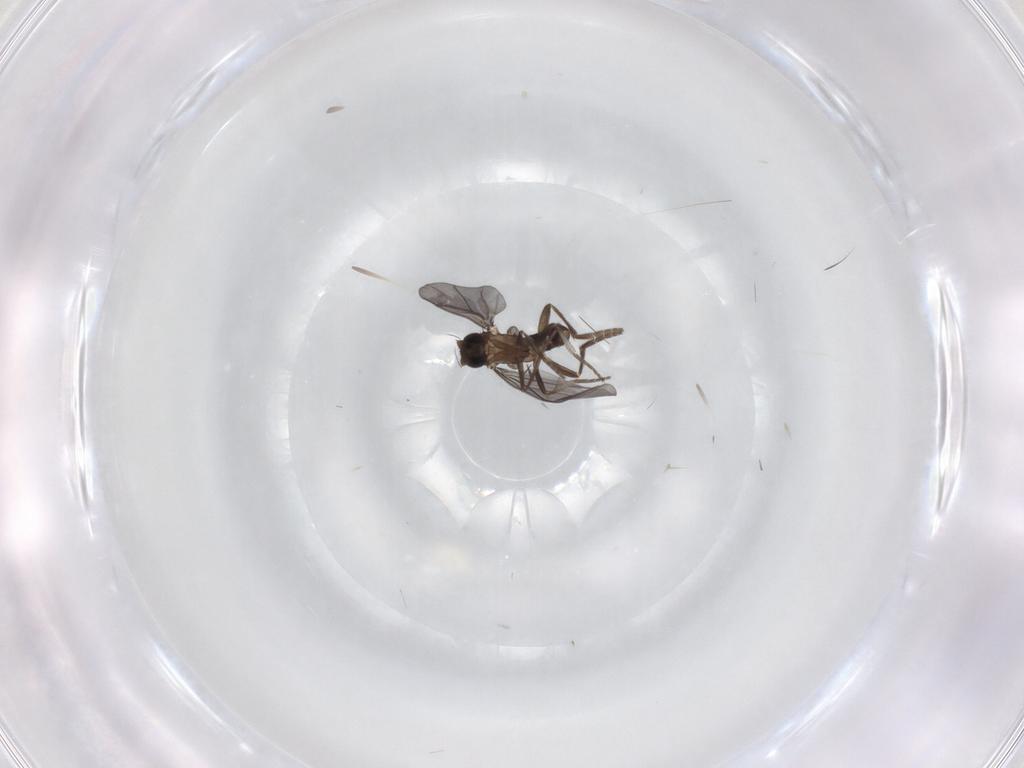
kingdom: Animalia
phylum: Arthropoda
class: Insecta
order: Diptera
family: Phoridae
